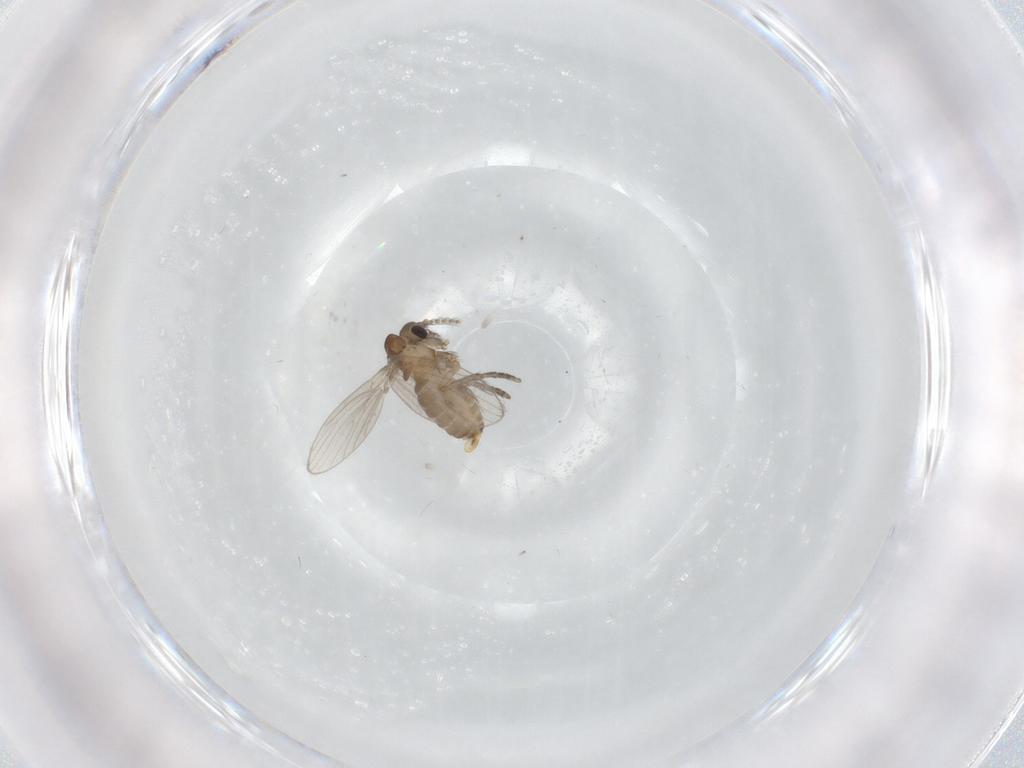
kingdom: Animalia
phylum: Arthropoda
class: Insecta
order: Diptera
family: Ceratopogonidae
